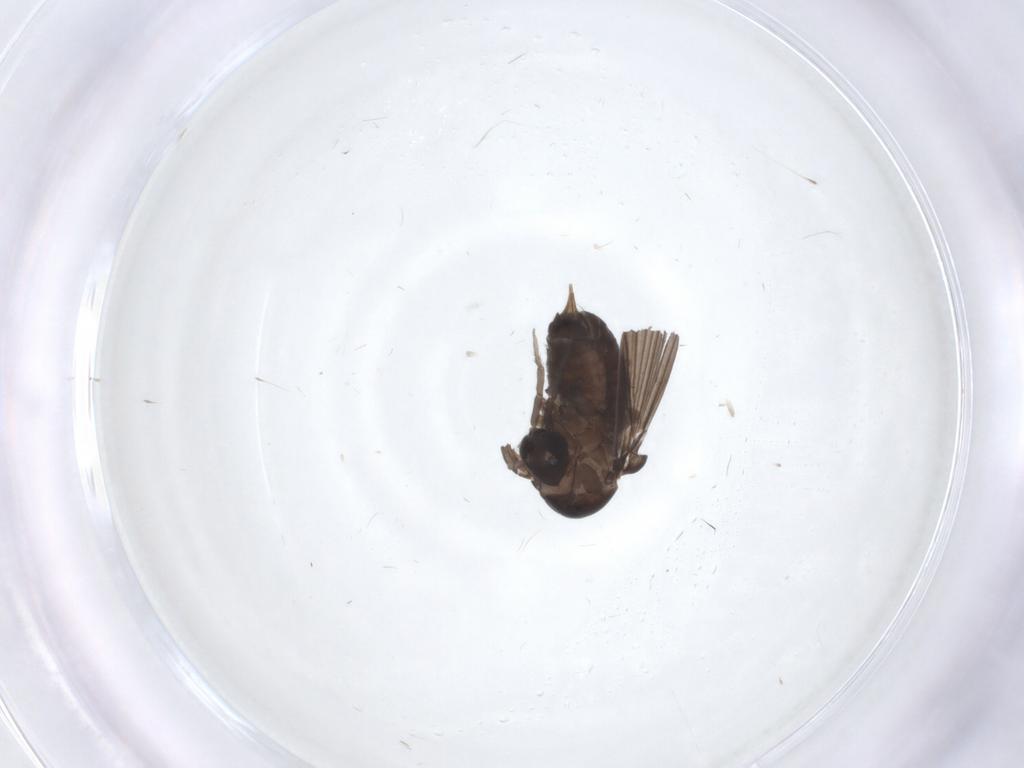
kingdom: Animalia
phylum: Arthropoda
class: Insecta
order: Diptera
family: Psychodidae
